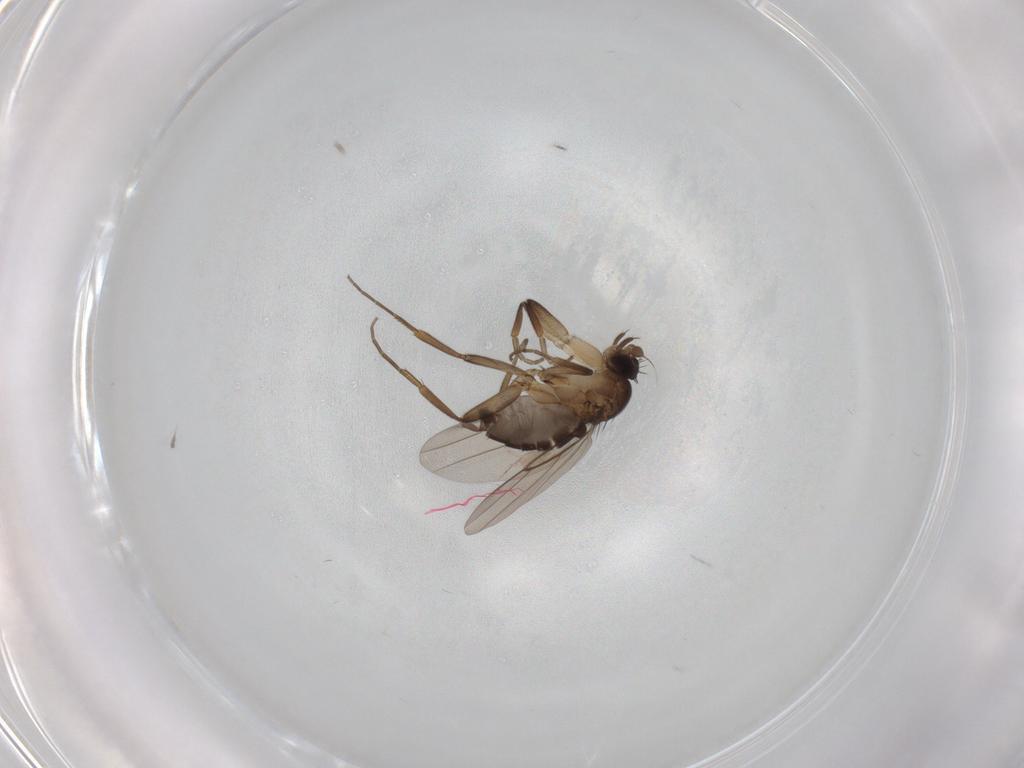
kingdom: Animalia
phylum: Arthropoda
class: Insecta
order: Diptera
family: Phoridae
